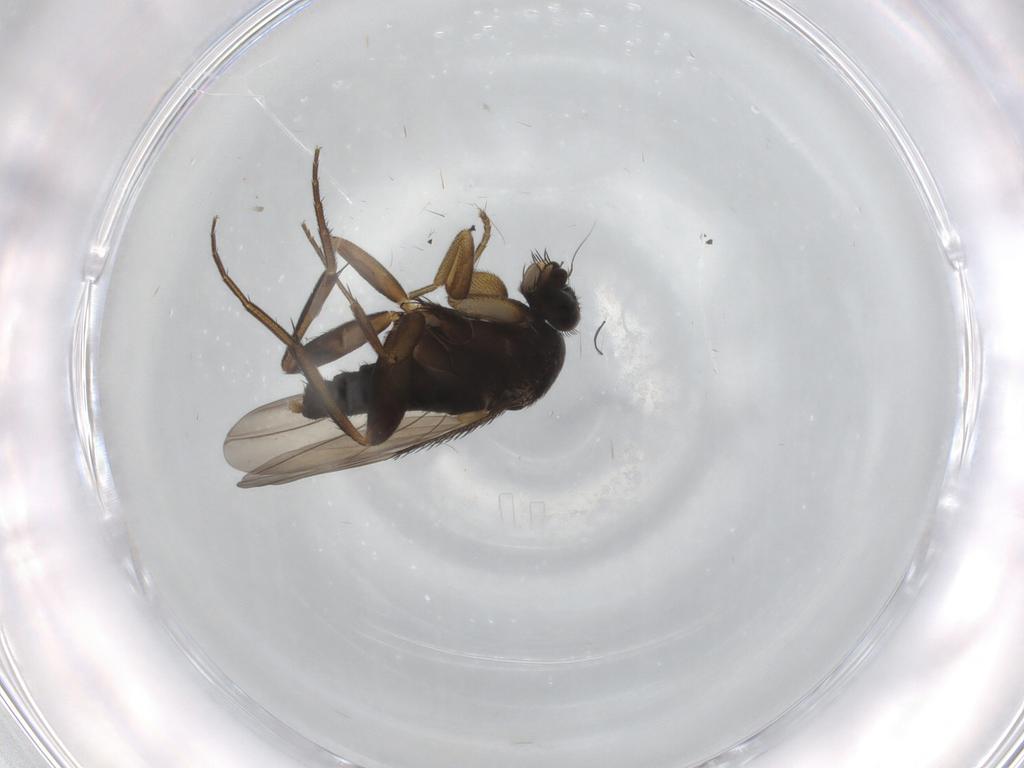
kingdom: Animalia
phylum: Arthropoda
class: Insecta
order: Diptera
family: Phoridae
